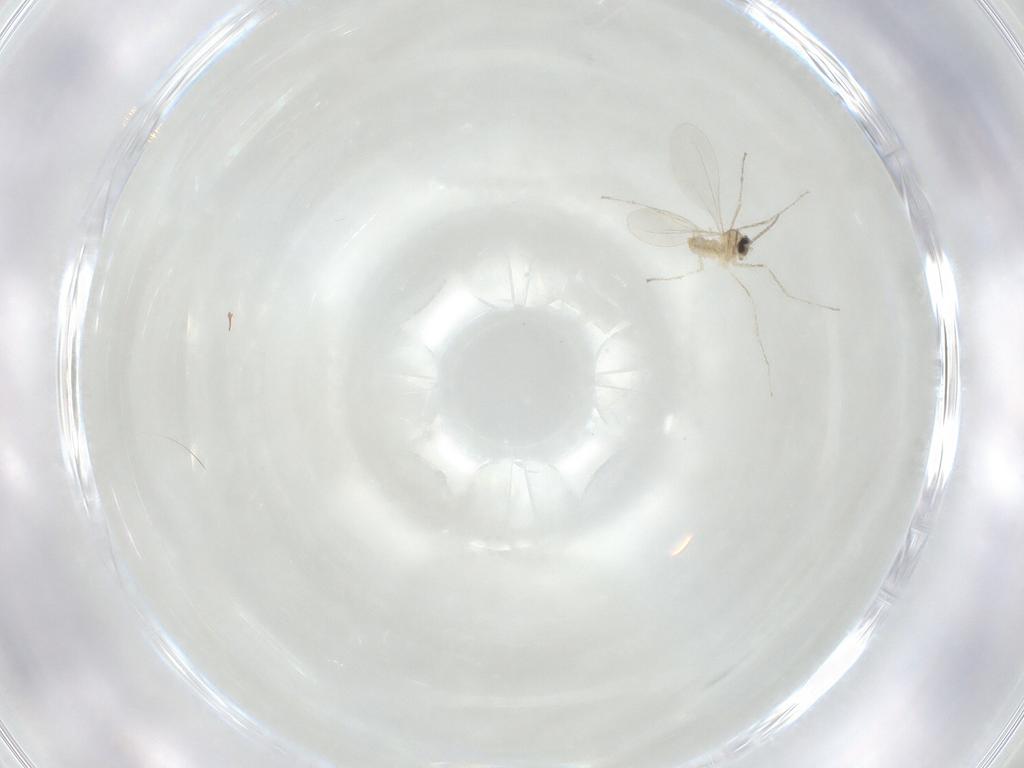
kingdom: Animalia
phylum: Arthropoda
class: Insecta
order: Diptera
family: Cecidomyiidae
